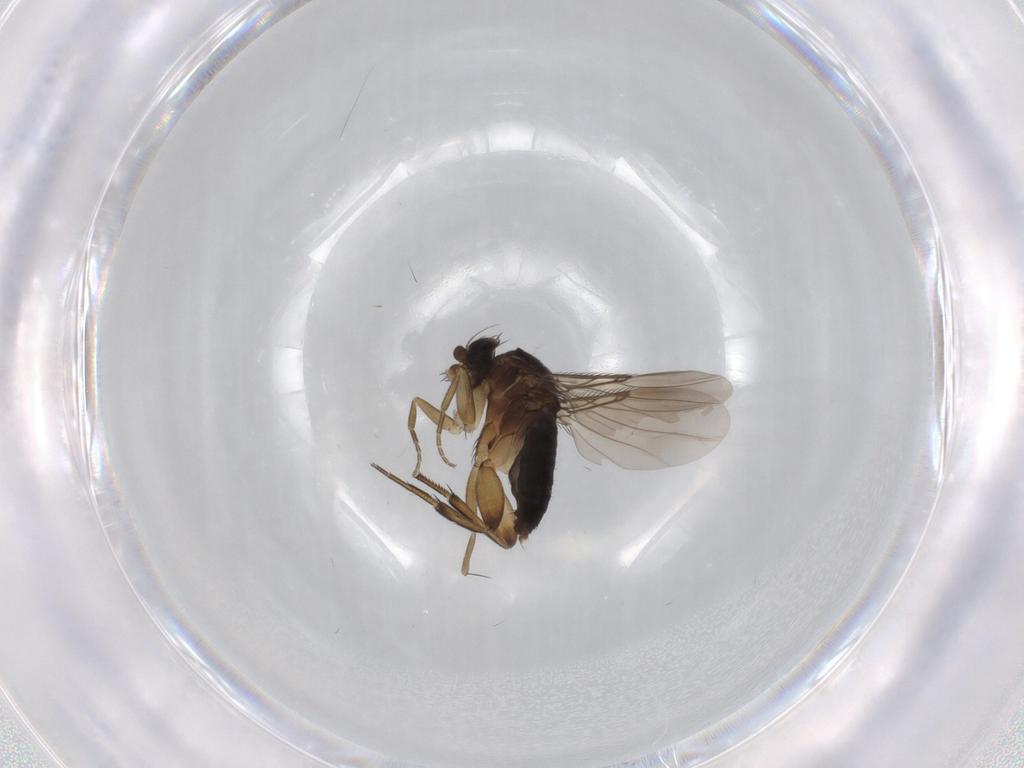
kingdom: Animalia
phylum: Arthropoda
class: Insecta
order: Diptera
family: Phoridae
